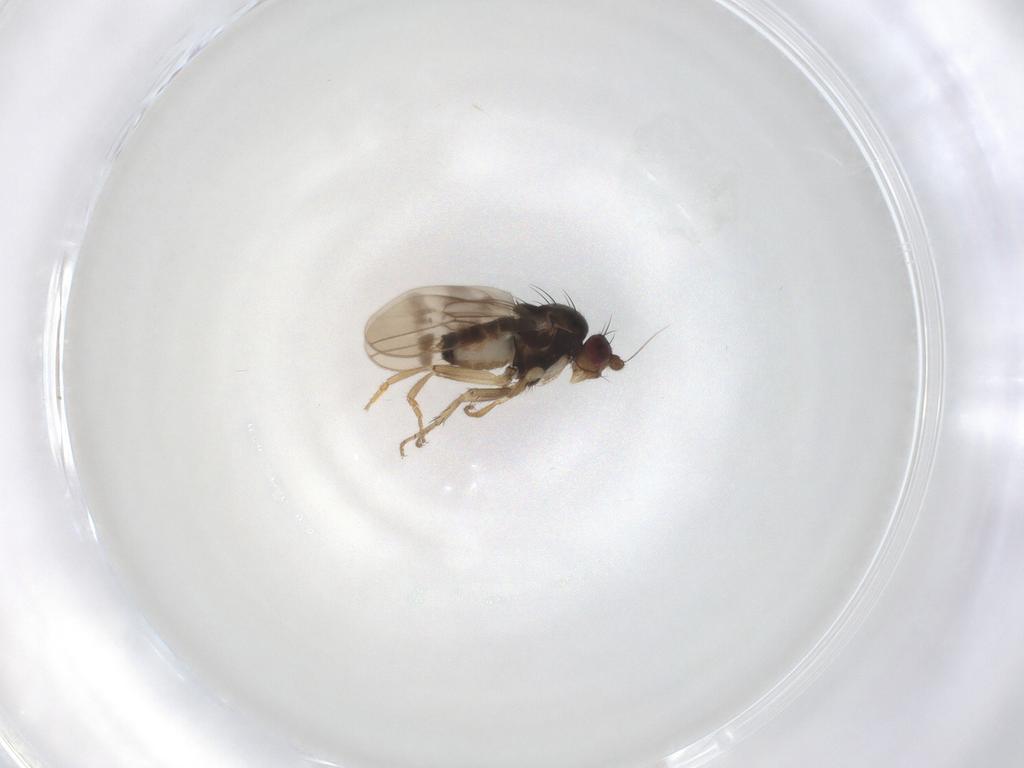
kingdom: Animalia
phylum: Arthropoda
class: Insecta
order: Diptera
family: Sphaeroceridae
